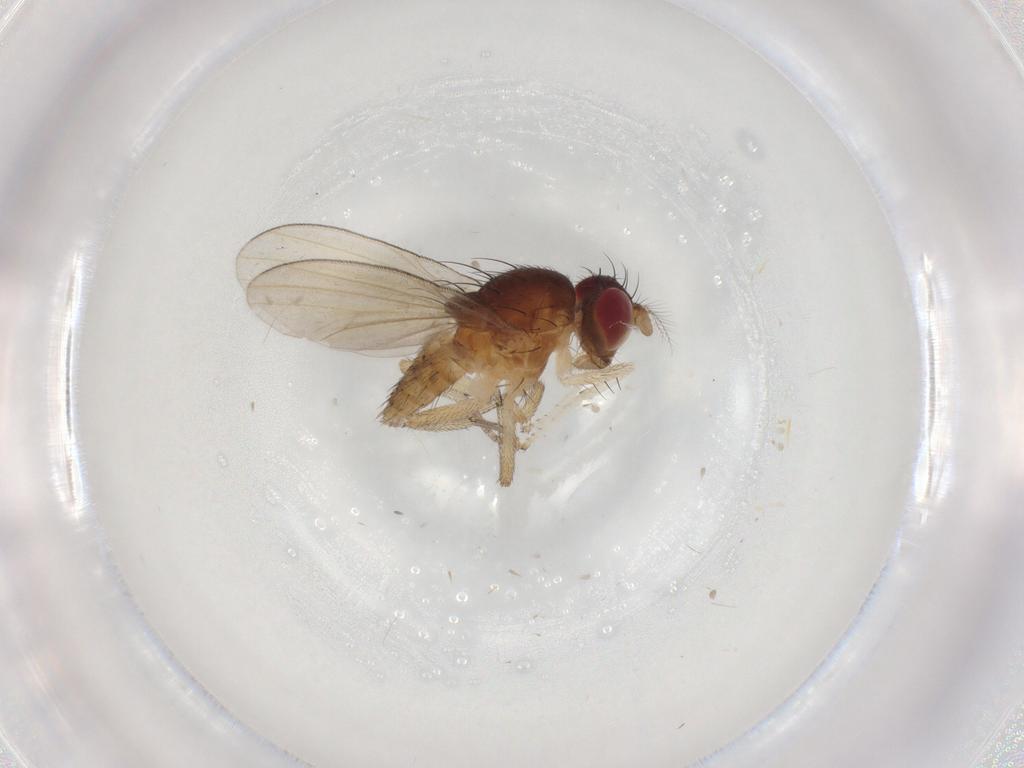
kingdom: Animalia
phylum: Arthropoda
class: Insecta
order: Diptera
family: Lauxaniidae
